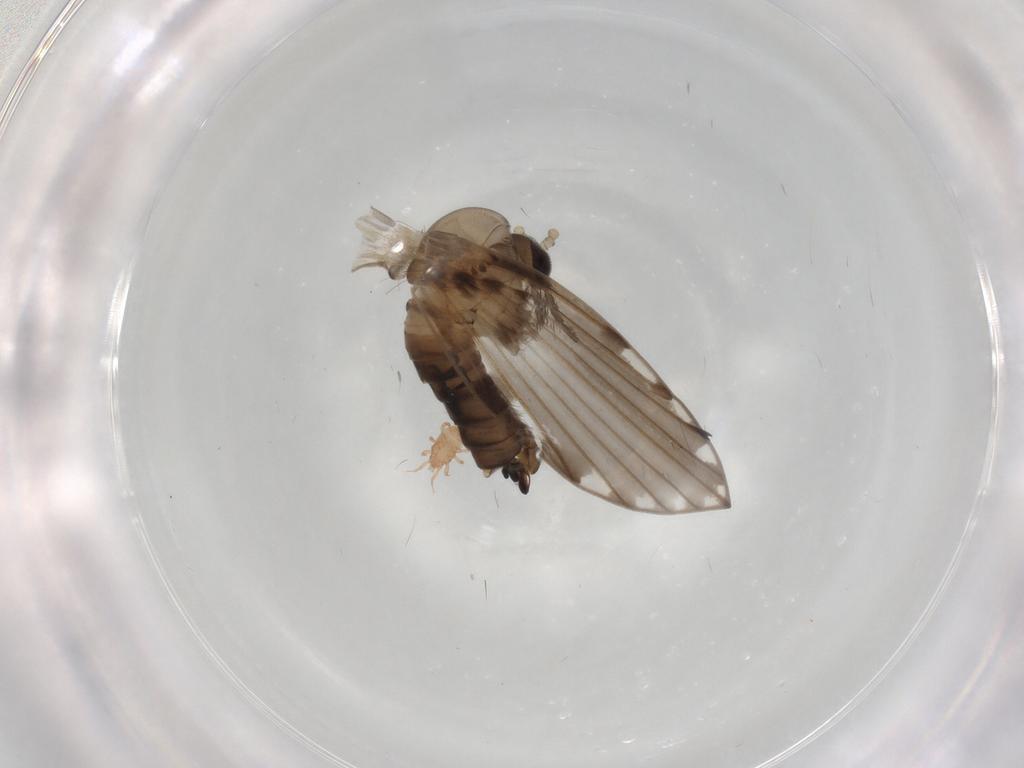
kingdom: Animalia
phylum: Arthropoda
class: Insecta
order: Diptera
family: Psychodidae
